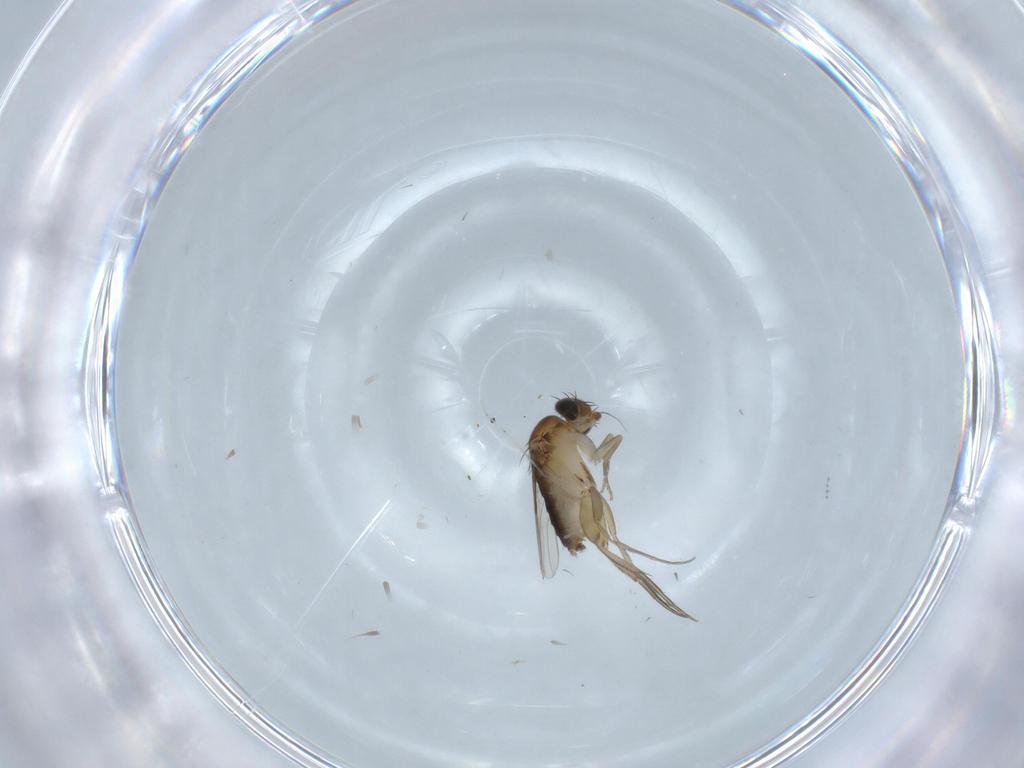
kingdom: Animalia
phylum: Arthropoda
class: Insecta
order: Diptera
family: Phoridae
